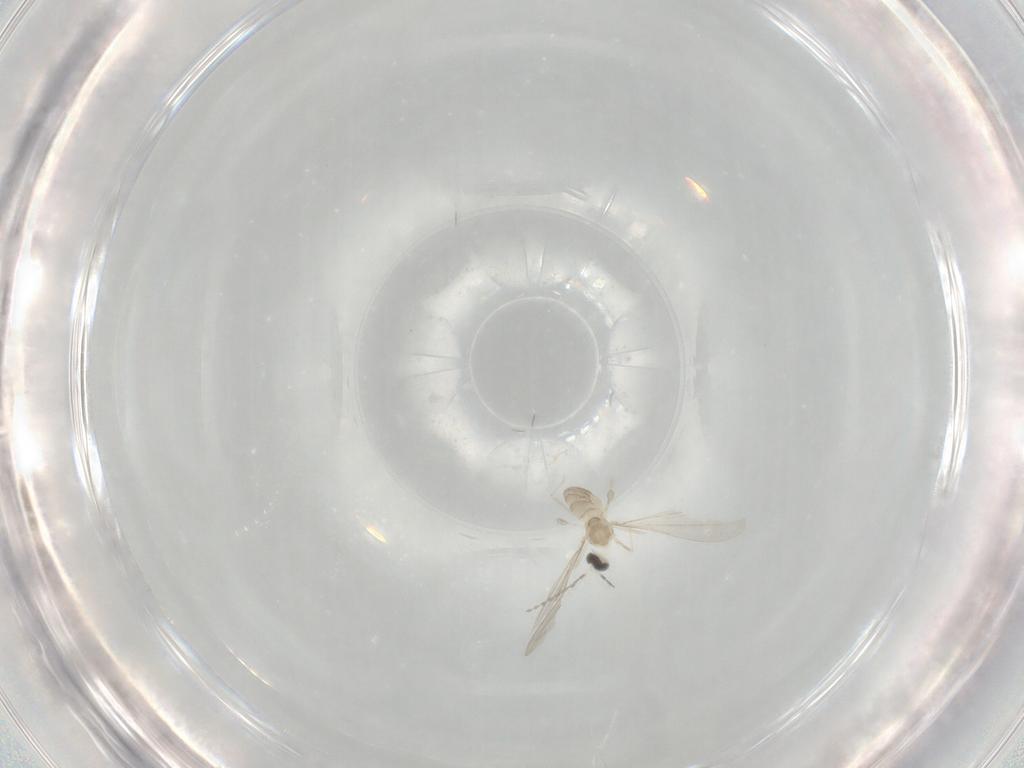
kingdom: Animalia
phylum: Arthropoda
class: Insecta
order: Diptera
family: Cecidomyiidae
